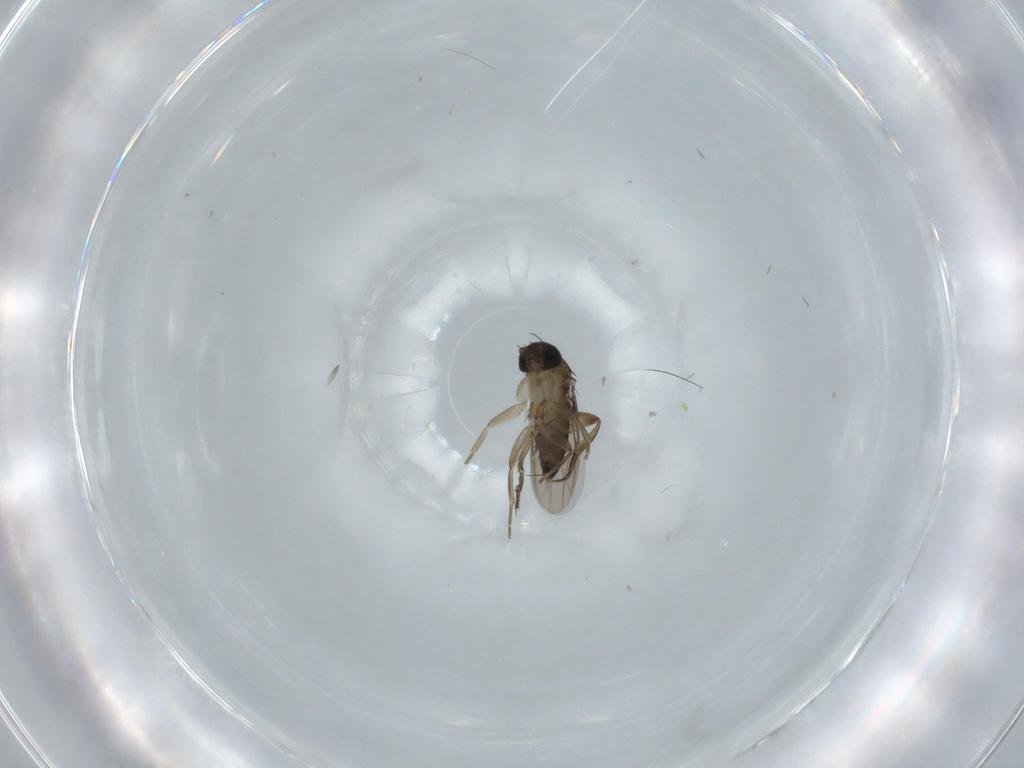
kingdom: Animalia
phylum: Arthropoda
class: Insecta
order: Diptera
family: Phoridae
